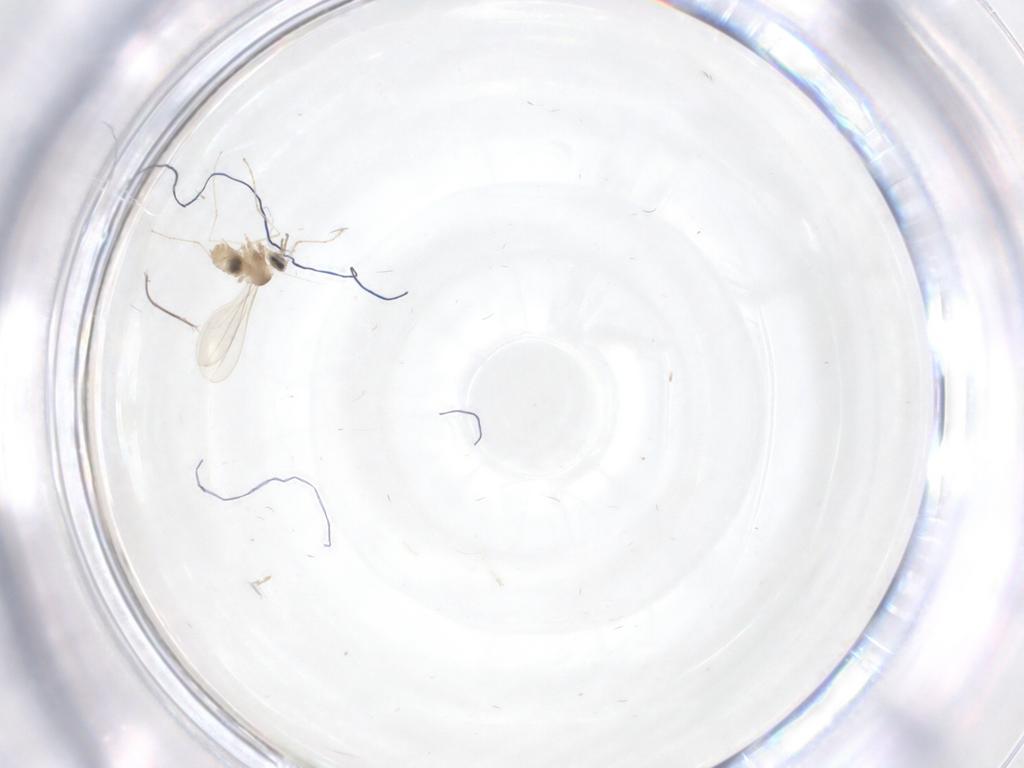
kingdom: Animalia
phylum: Arthropoda
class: Insecta
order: Diptera
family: Cecidomyiidae
